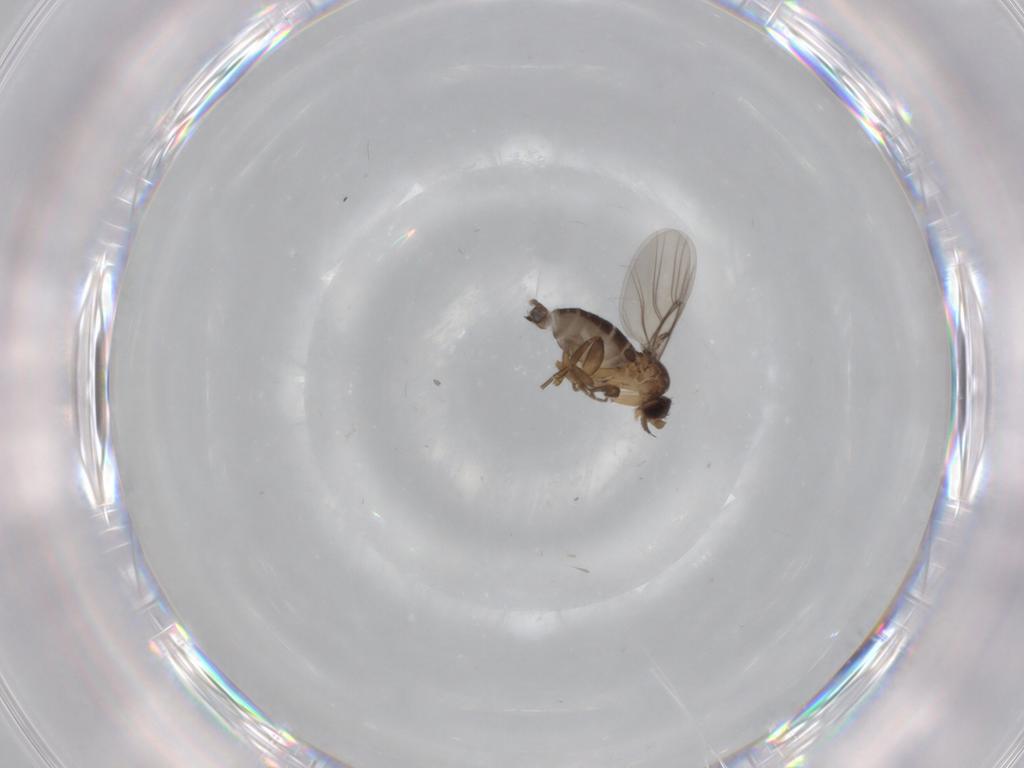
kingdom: Animalia
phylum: Arthropoda
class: Insecta
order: Diptera
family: Phoridae
